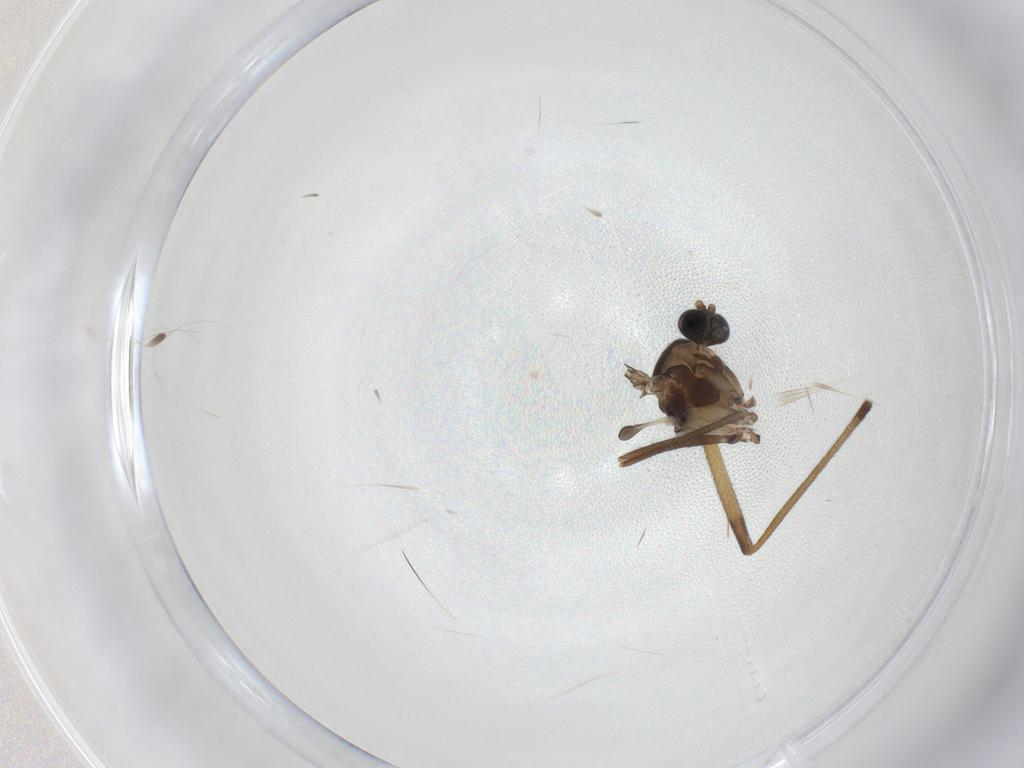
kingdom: Animalia
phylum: Arthropoda
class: Insecta
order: Diptera
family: Sciaridae
